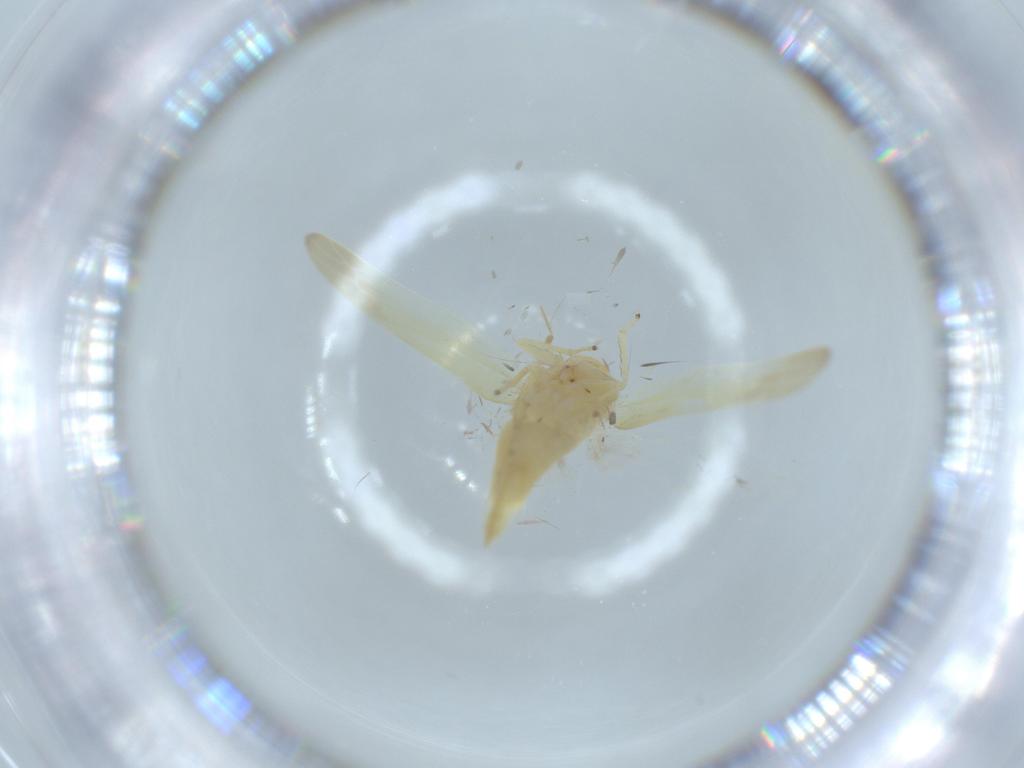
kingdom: Animalia
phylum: Arthropoda
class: Insecta
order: Hemiptera
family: Cicadellidae
